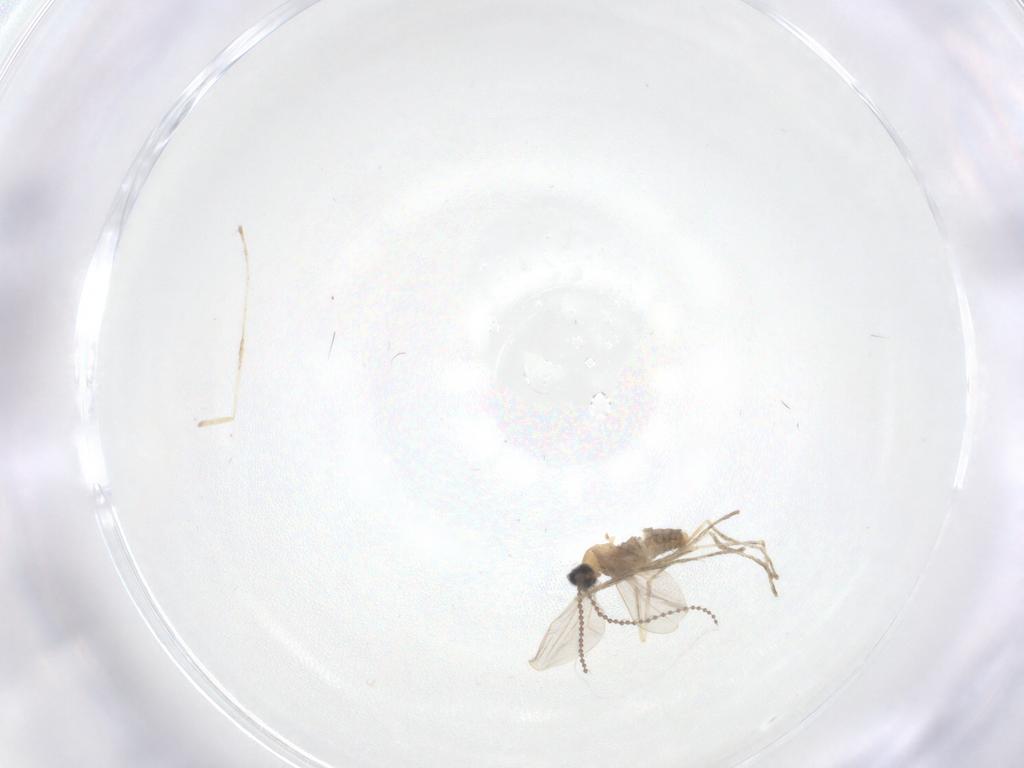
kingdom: Animalia
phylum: Arthropoda
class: Insecta
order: Diptera
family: Cecidomyiidae
